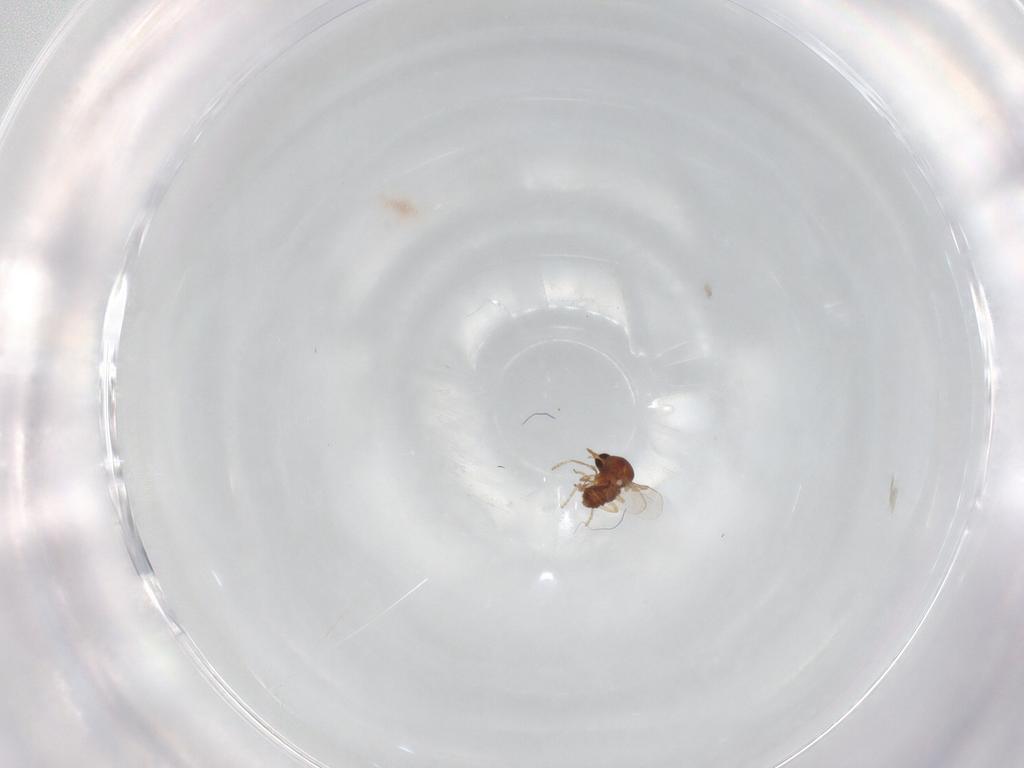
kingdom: Animalia
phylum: Arthropoda
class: Insecta
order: Diptera
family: Ceratopogonidae
